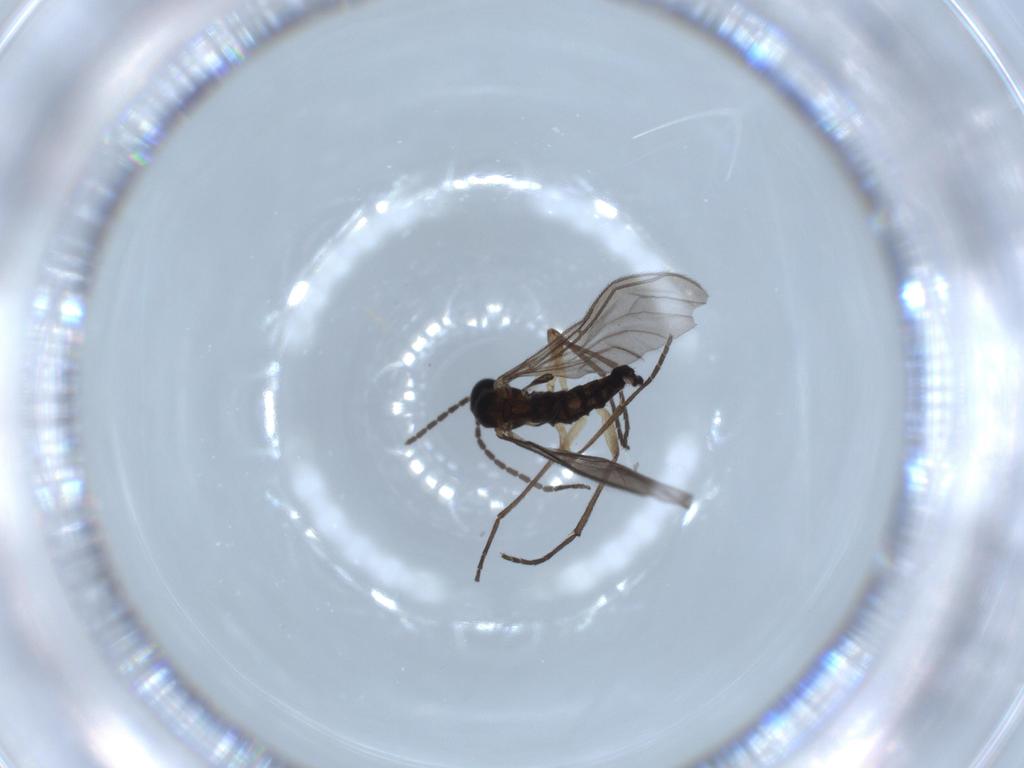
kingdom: Animalia
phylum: Arthropoda
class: Insecta
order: Diptera
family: Sciaridae
